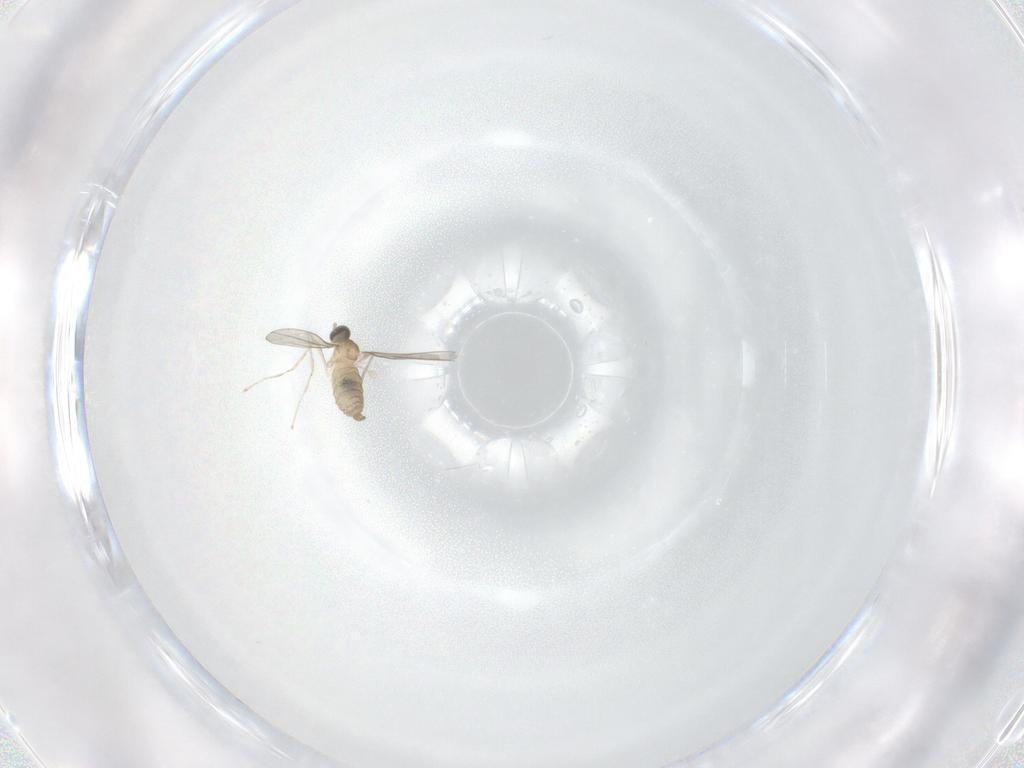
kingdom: Animalia
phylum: Arthropoda
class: Insecta
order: Diptera
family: Cecidomyiidae
